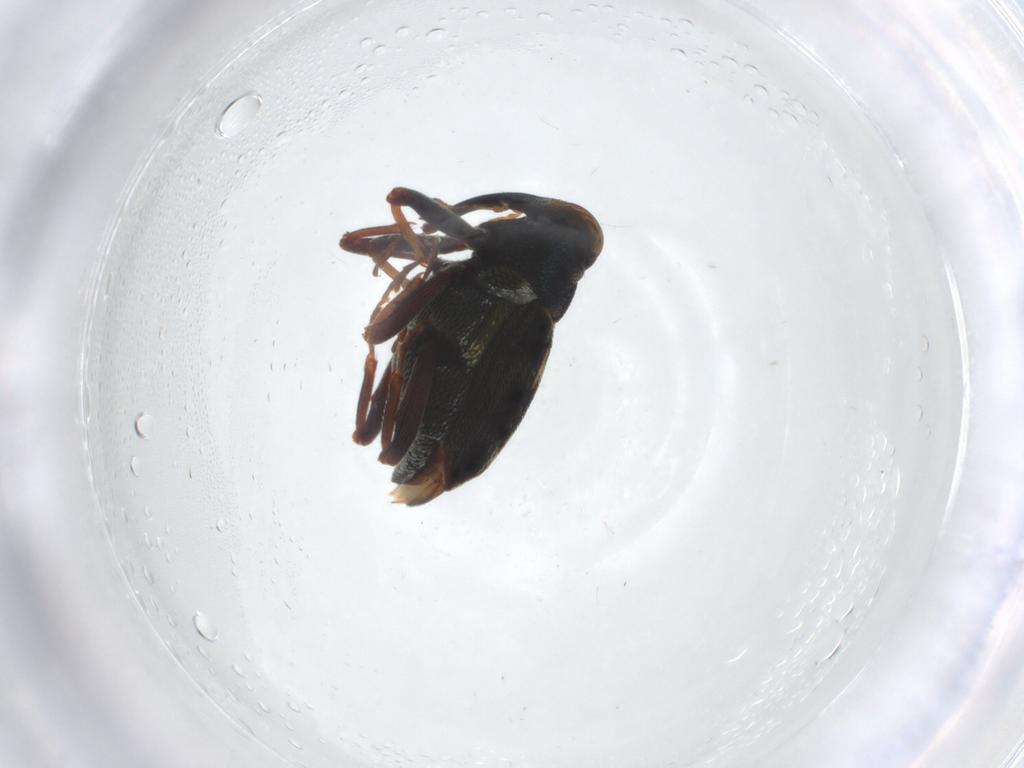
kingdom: Animalia
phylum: Arthropoda
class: Insecta
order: Coleoptera
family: Curculionidae
